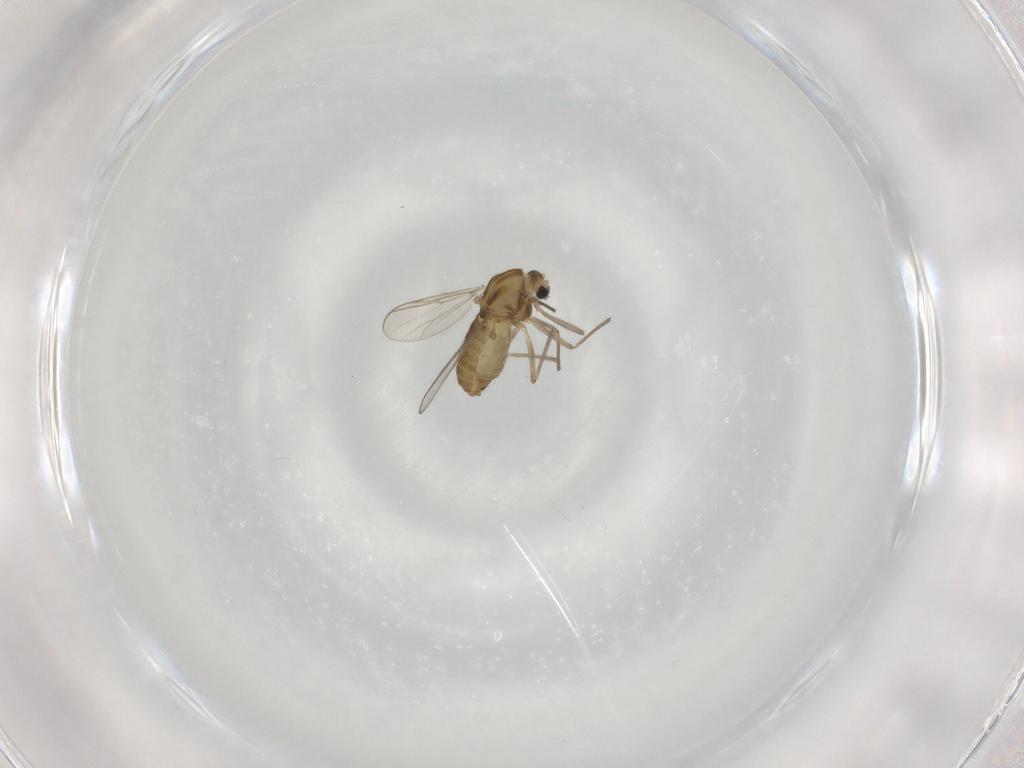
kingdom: Animalia
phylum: Arthropoda
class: Insecta
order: Diptera
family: Chironomidae
